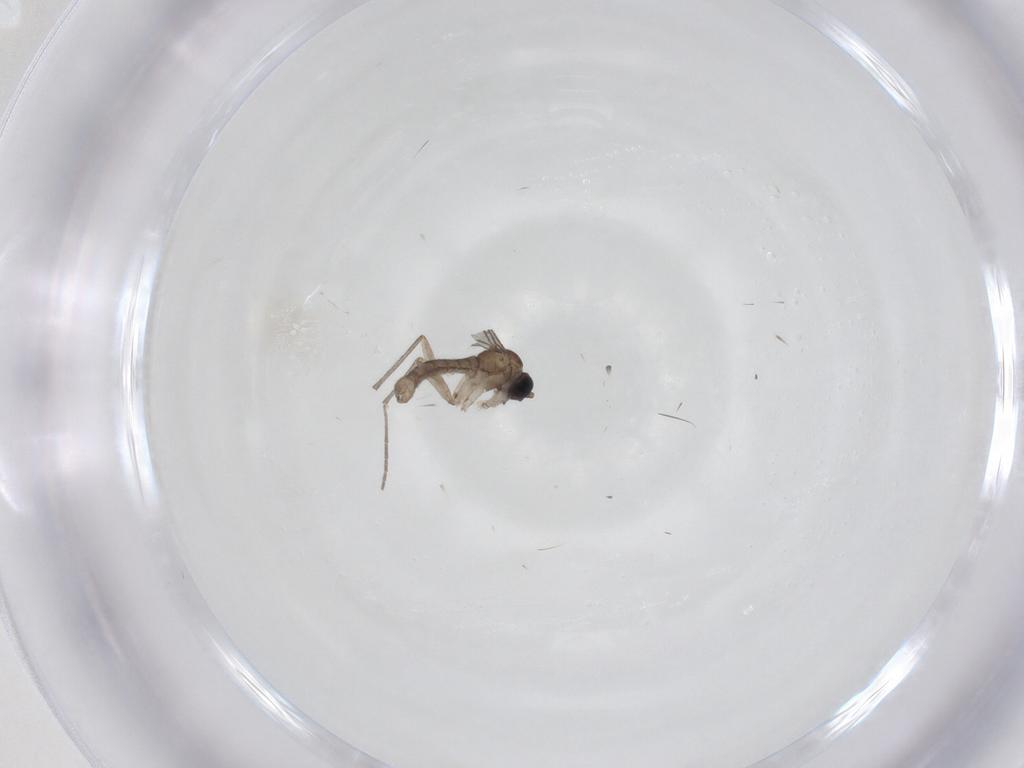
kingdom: Animalia
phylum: Arthropoda
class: Insecta
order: Diptera
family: Sciaridae
